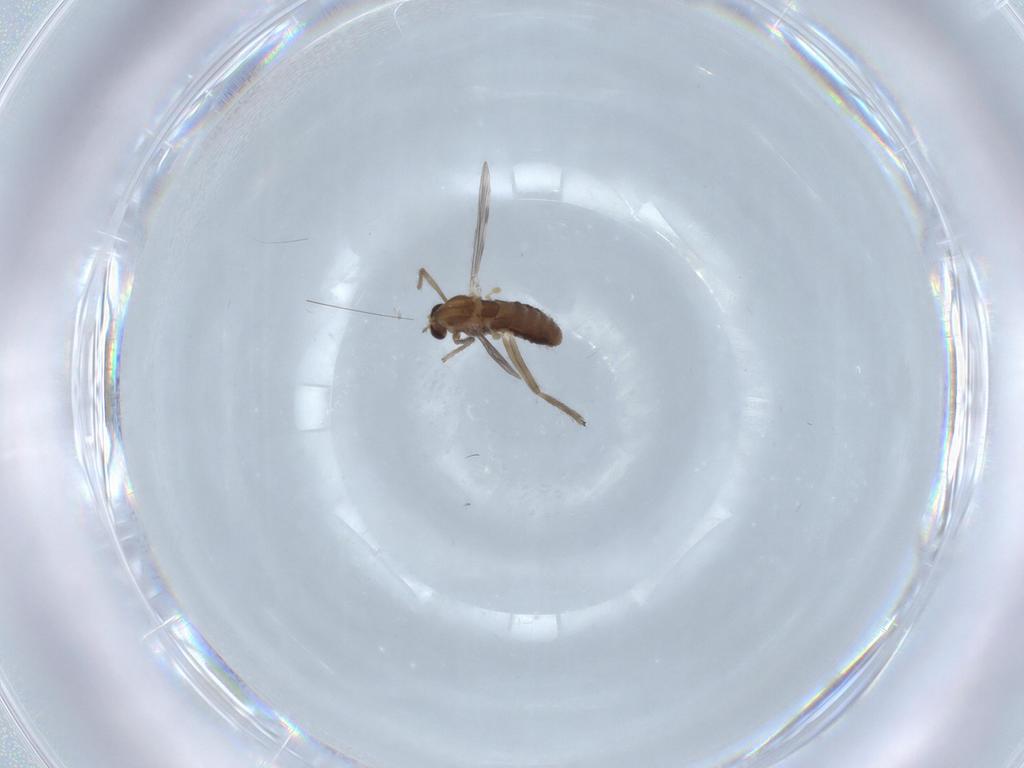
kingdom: Animalia
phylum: Arthropoda
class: Insecta
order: Diptera
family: Chironomidae
